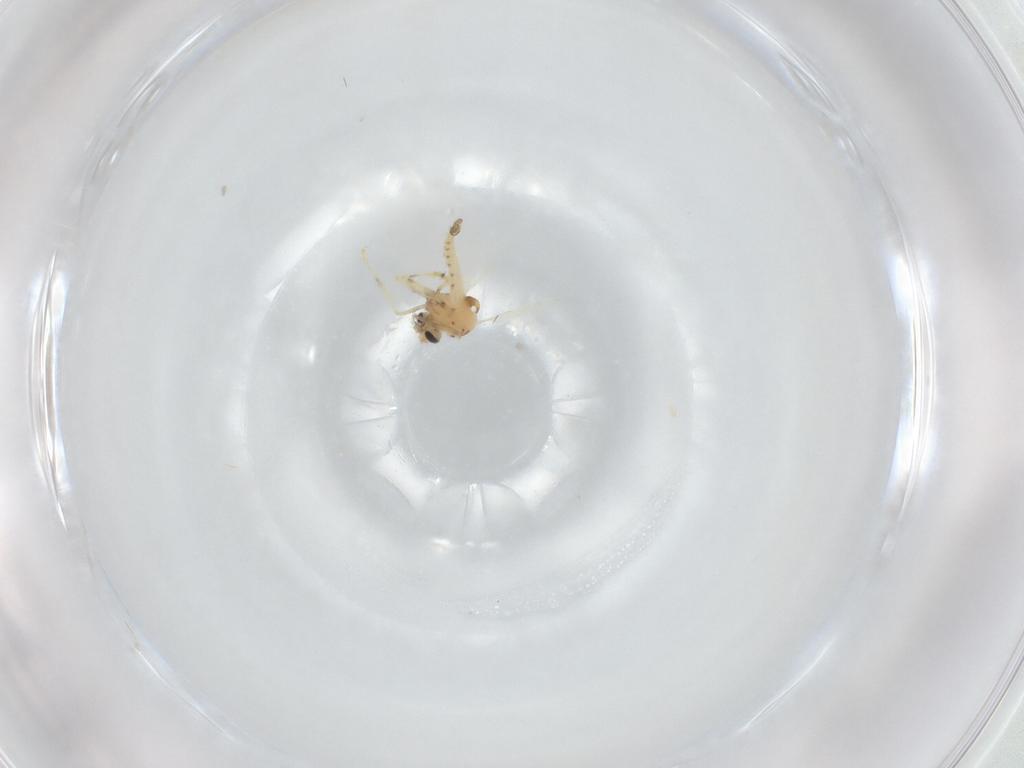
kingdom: Animalia
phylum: Arthropoda
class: Insecta
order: Diptera
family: Ceratopogonidae
